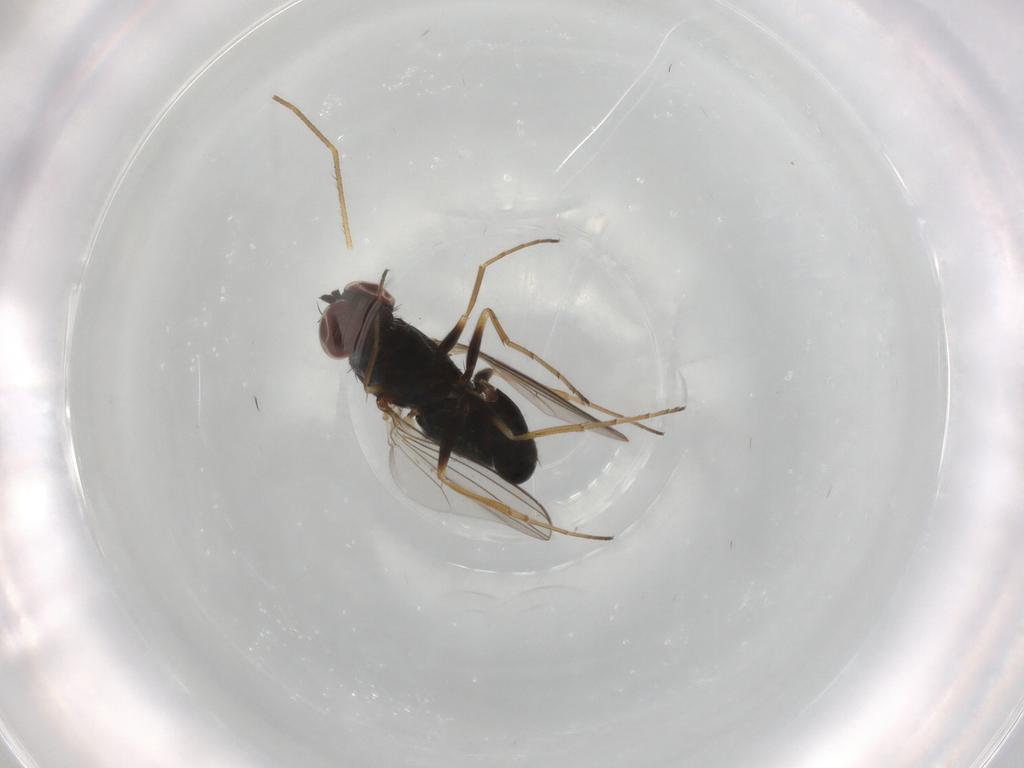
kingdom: Animalia
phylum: Arthropoda
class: Insecta
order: Diptera
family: Dolichopodidae
